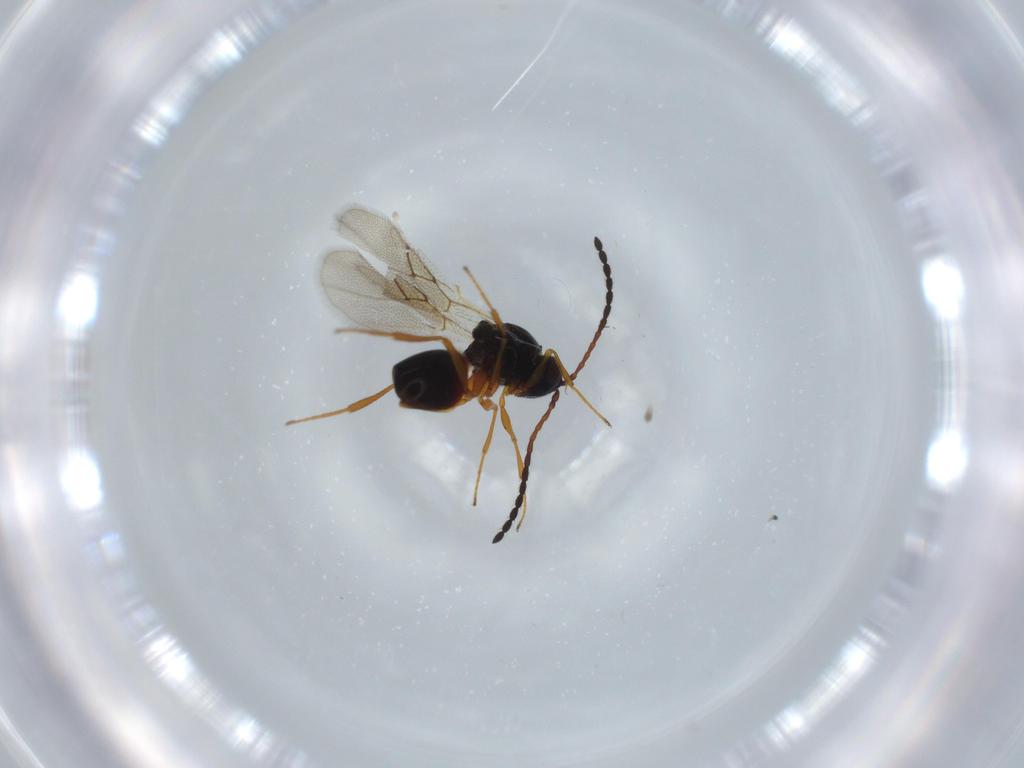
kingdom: Animalia
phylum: Arthropoda
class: Insecta
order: Hymenoptera
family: Figitidae
